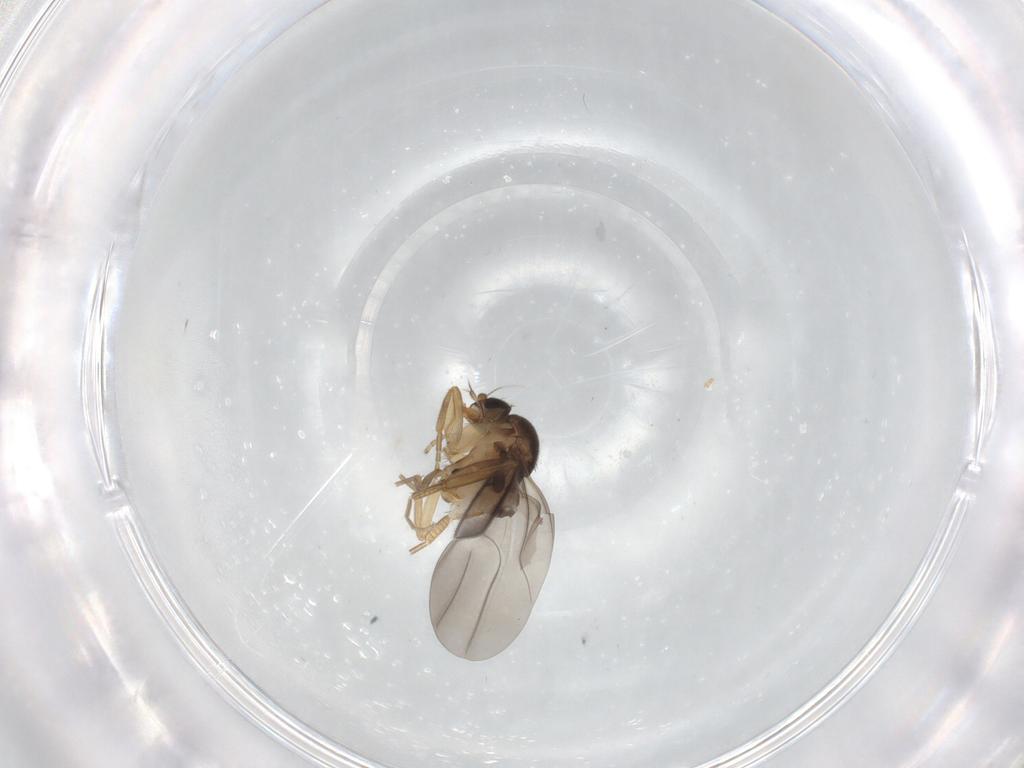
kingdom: Animalia
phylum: Arthropoda
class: Insecta
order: Diptera
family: Phoridae
